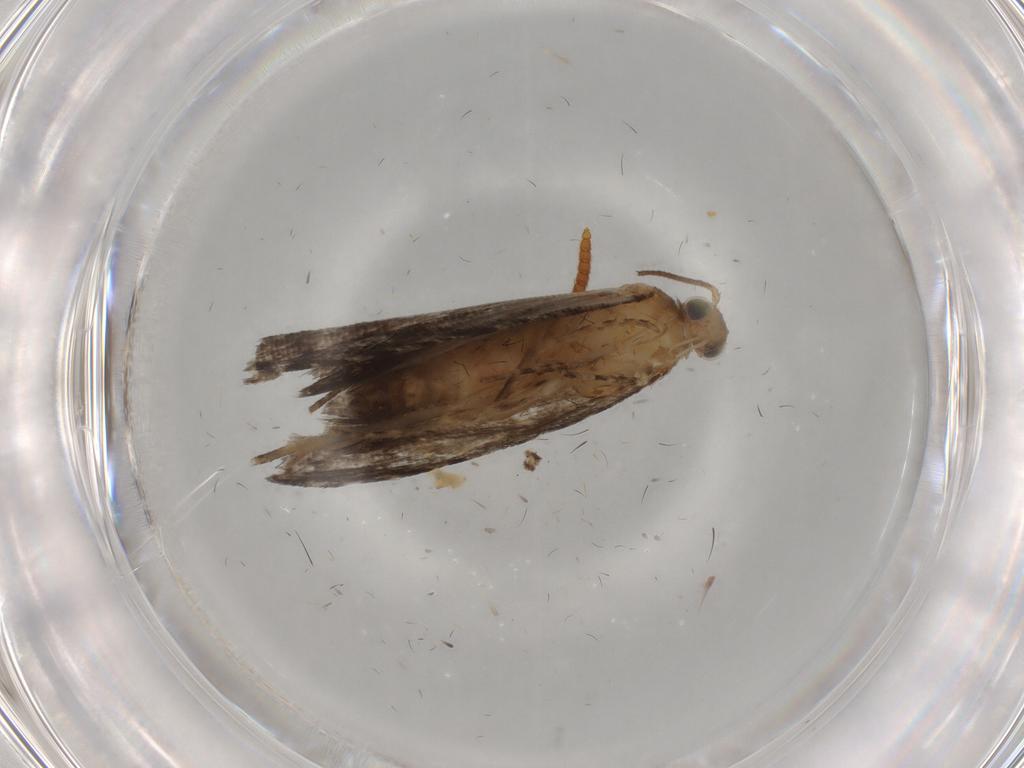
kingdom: Animalia
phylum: Arthropoda
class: Insecta
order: Lepidoptera
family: Tortricidae
